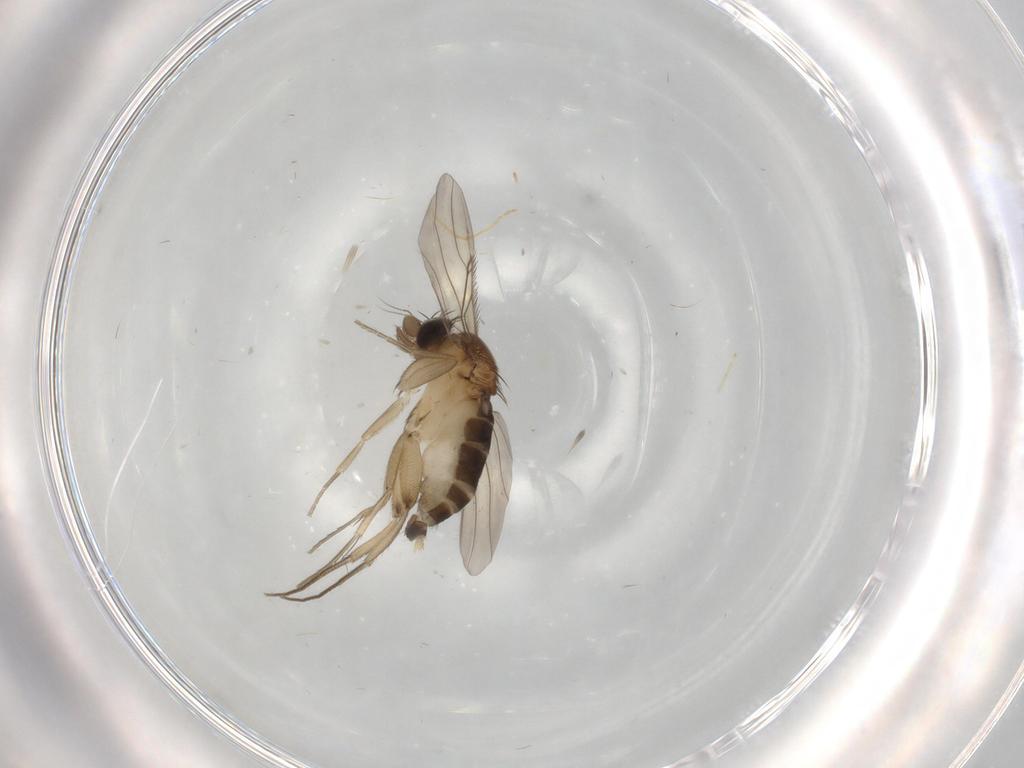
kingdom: Animalia
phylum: Arthropoda
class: Insecta
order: Diptera
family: Phoridae
